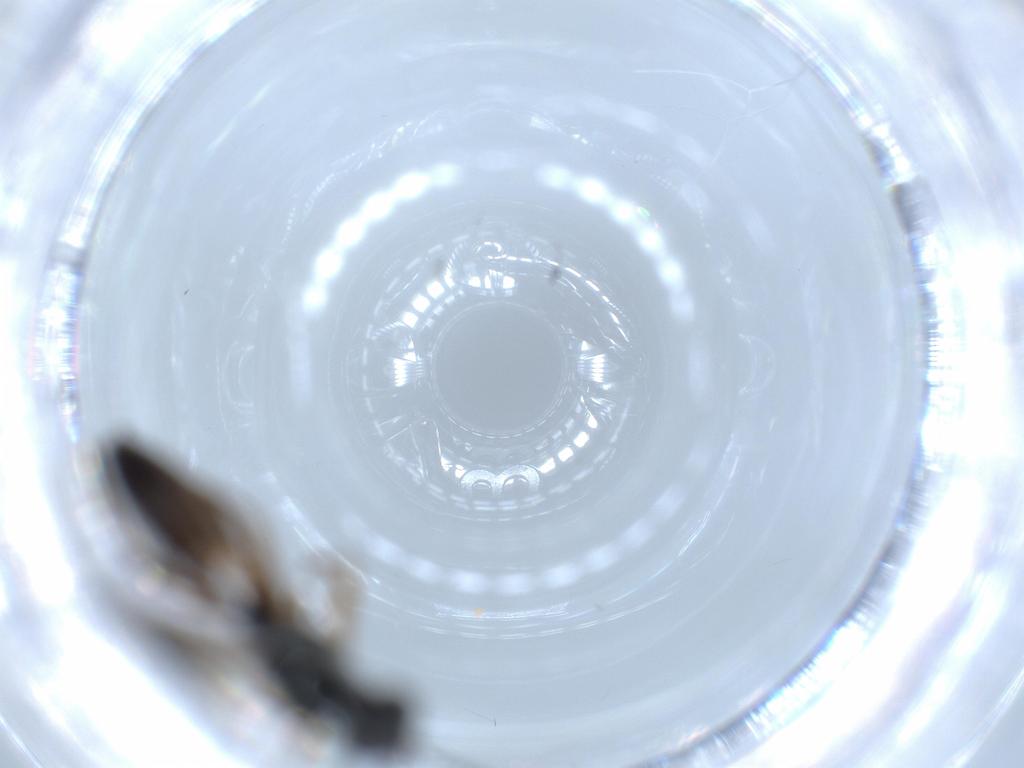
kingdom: Animalia
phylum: Arthropoda
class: Insecta
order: Hymenoptera
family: Ichneumonidae
